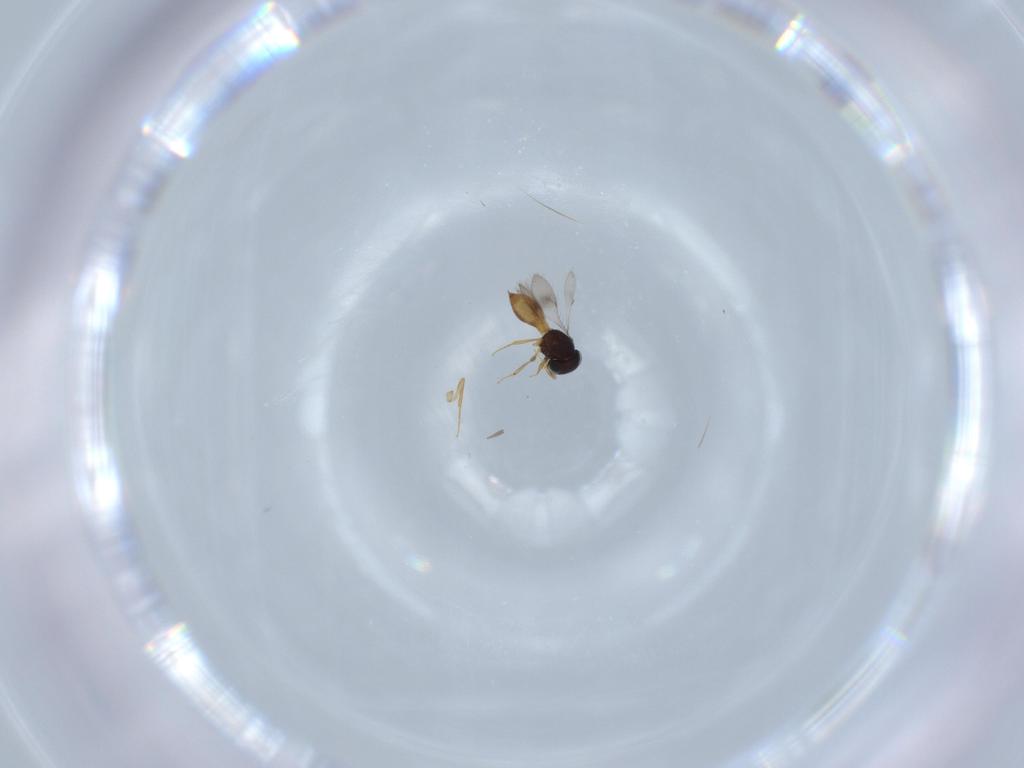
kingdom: Animalia
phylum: Arthropoda
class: Insecta
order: Hymenoptera
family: Scelionidae
